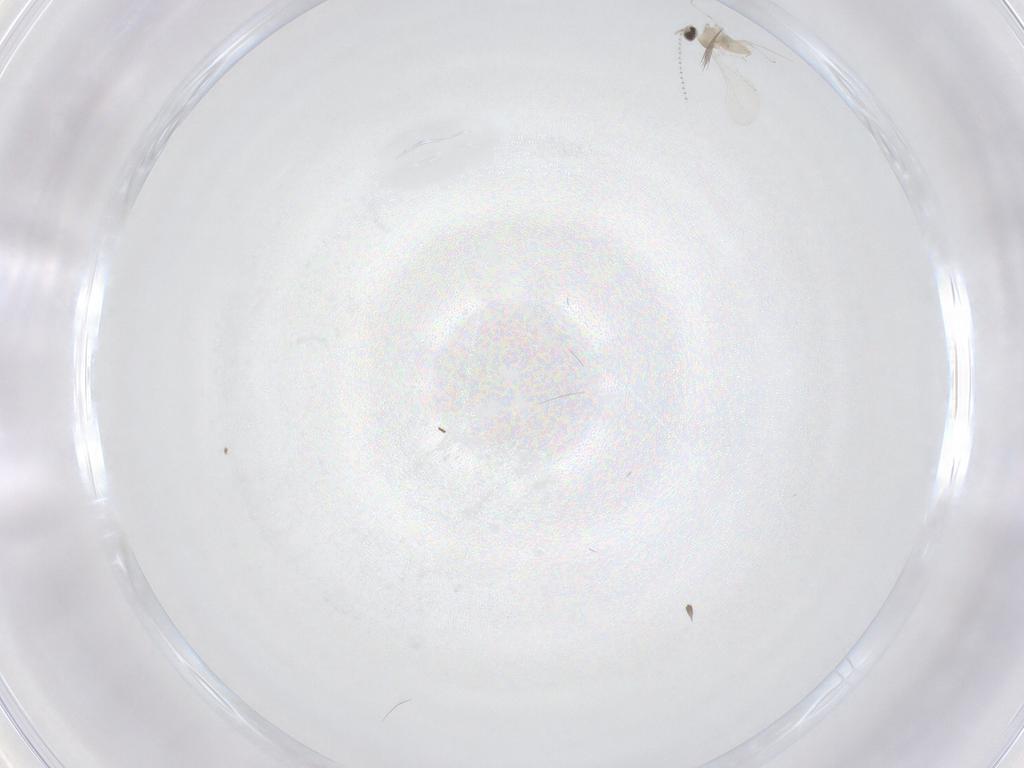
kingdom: Animalia
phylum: Arthropoda
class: Insecta
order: Diptera
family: Cecidomyiidae
